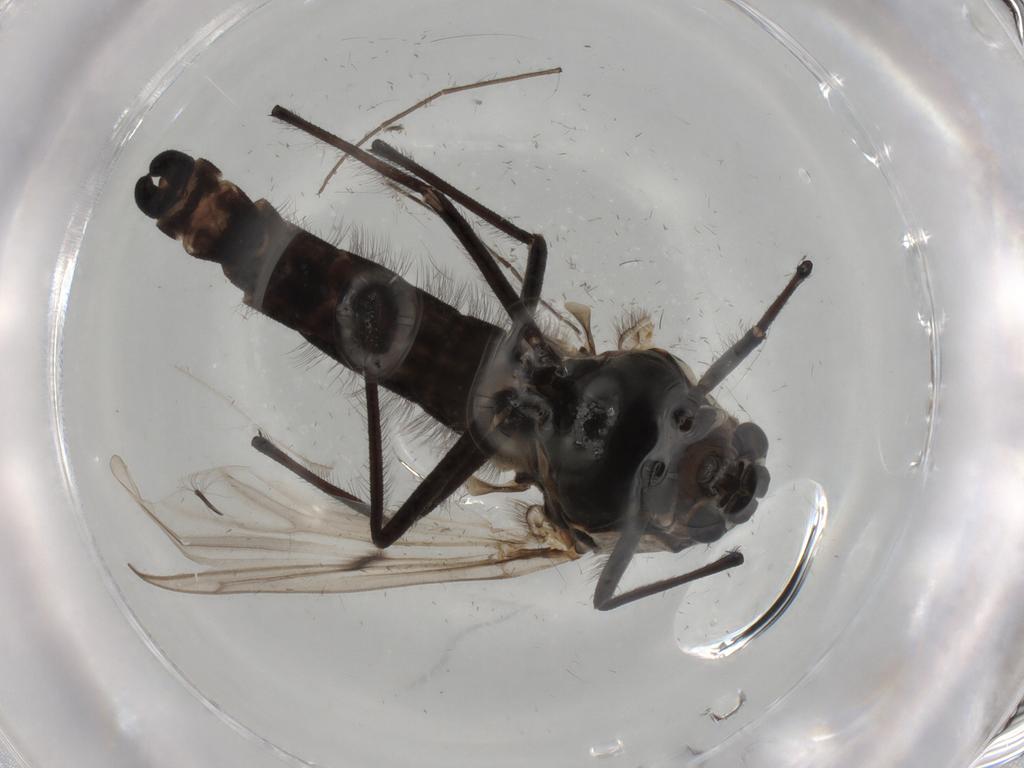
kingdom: Animalia
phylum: Arthropoda
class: Insecta
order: Diptera
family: Chironomidae
